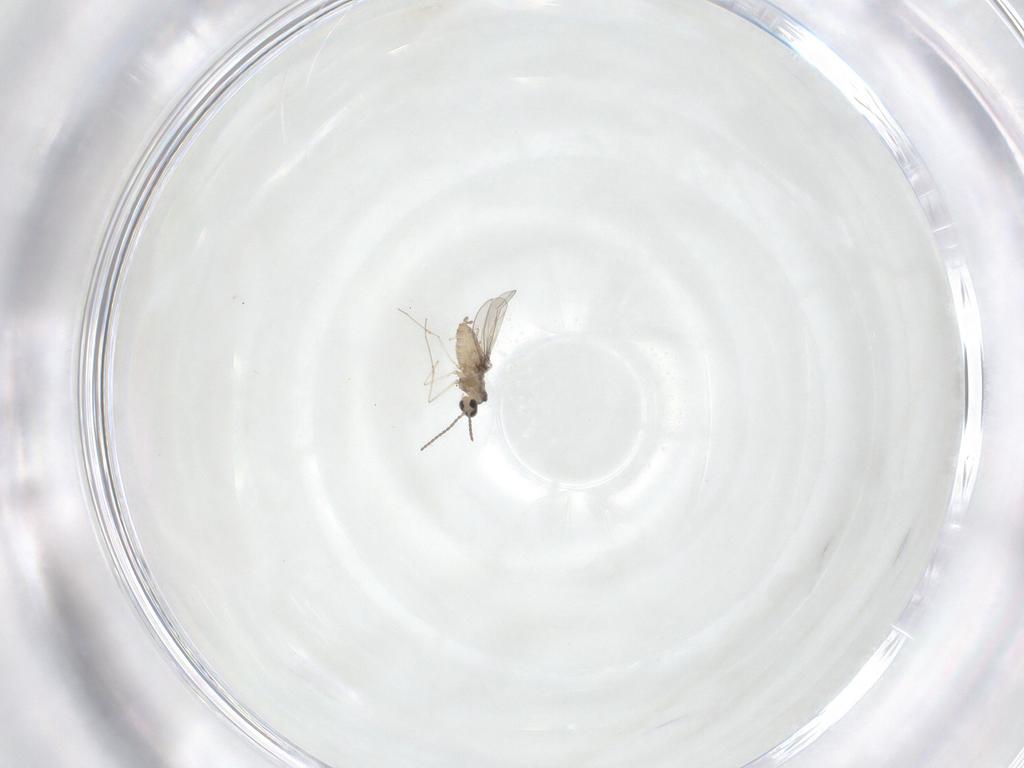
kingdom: Animalia
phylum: Arthropoda
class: Insecta
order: Diptera
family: Cecidomyiidae
